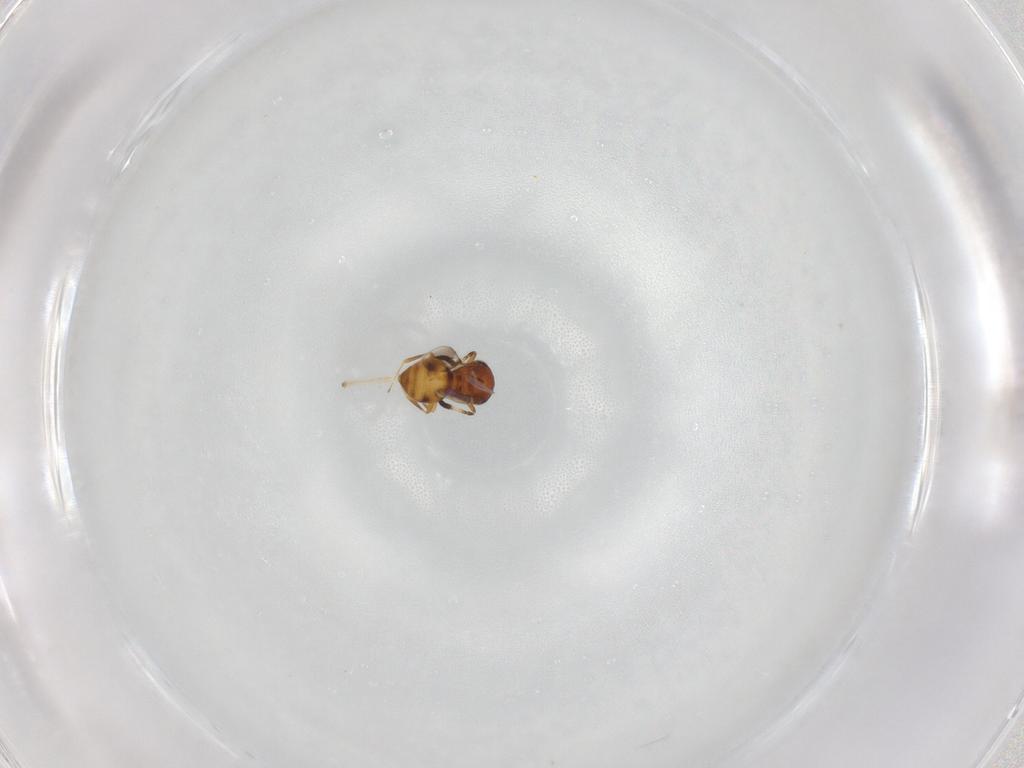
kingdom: Animalia
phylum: Arthropoda
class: Insecta
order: Hymenoptera
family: Scelionidae
